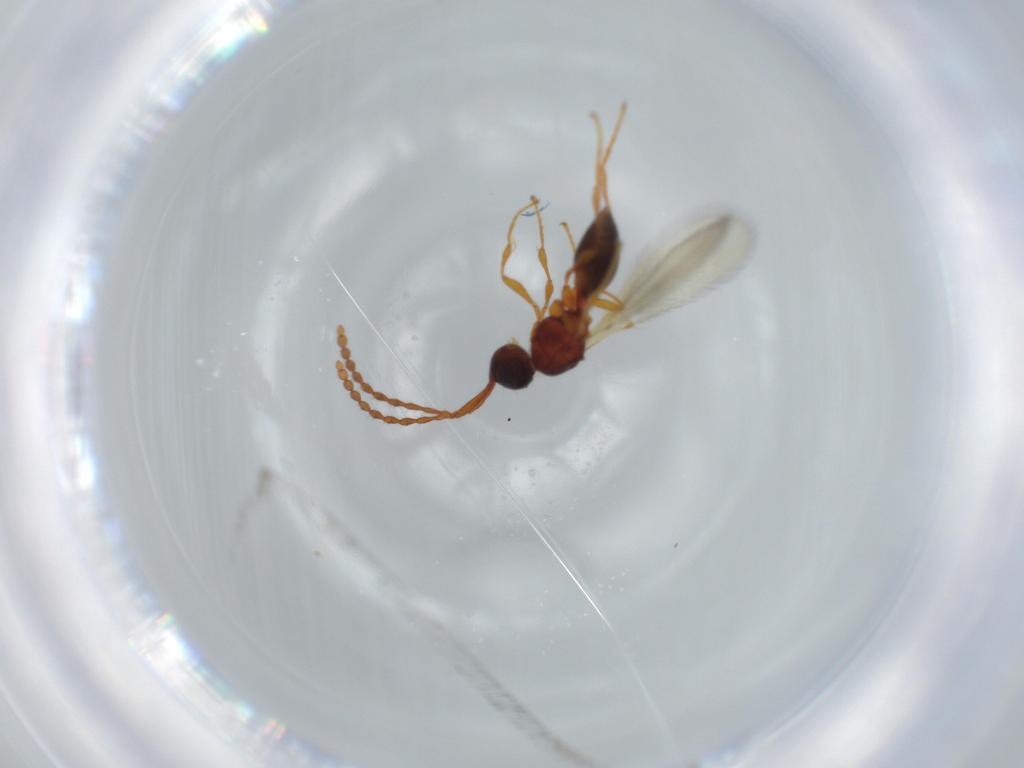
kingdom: Animalia
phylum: Arthropoda
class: Insecta
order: Hymenoptera
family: Diapriidae
